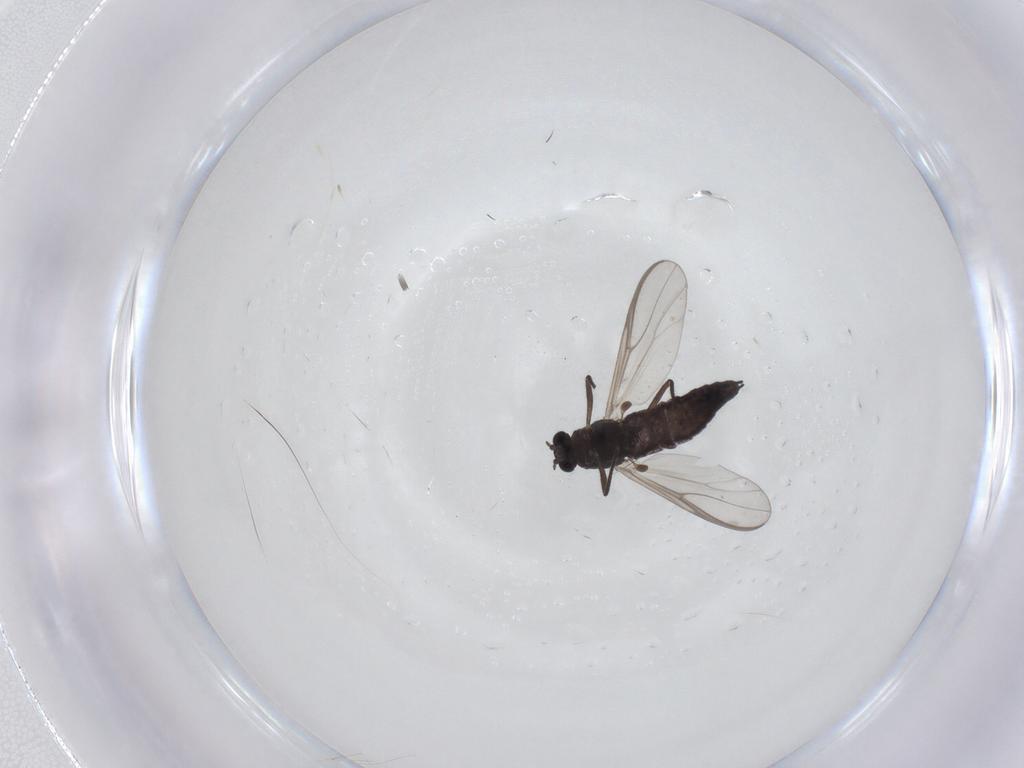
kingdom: Animalia
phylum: Arthropoda
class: Insecta
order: Diptera
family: Chironomidae
